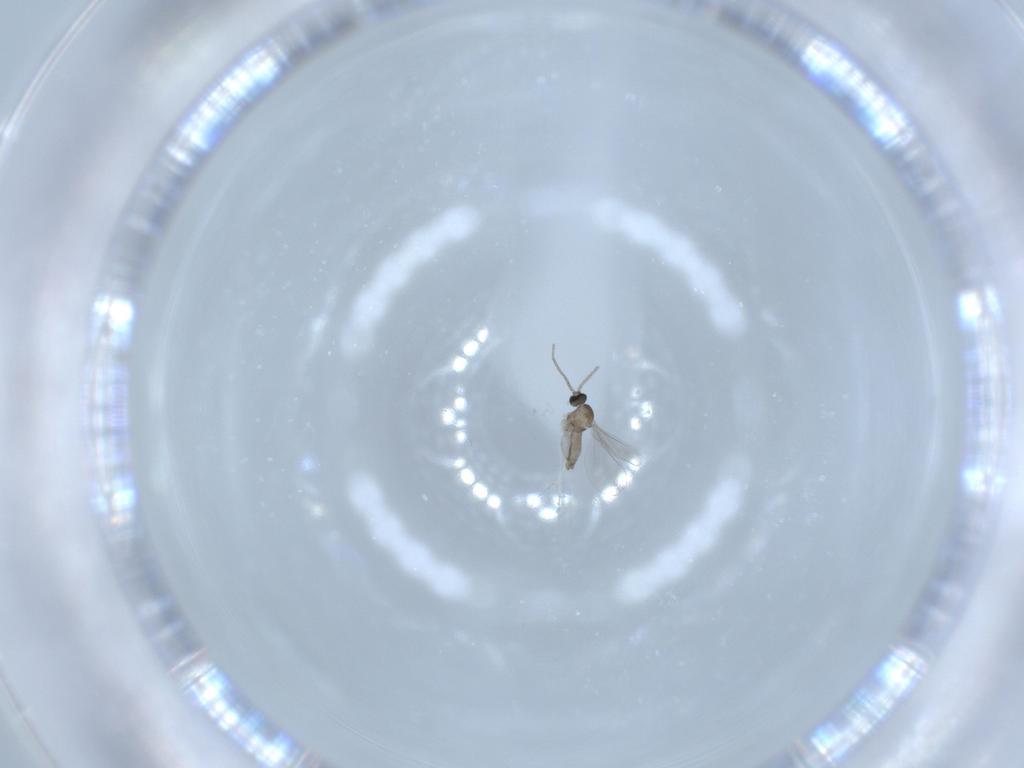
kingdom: Animalia
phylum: Arthropoda
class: Insecta
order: Diptera
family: Cecidomyiidae
